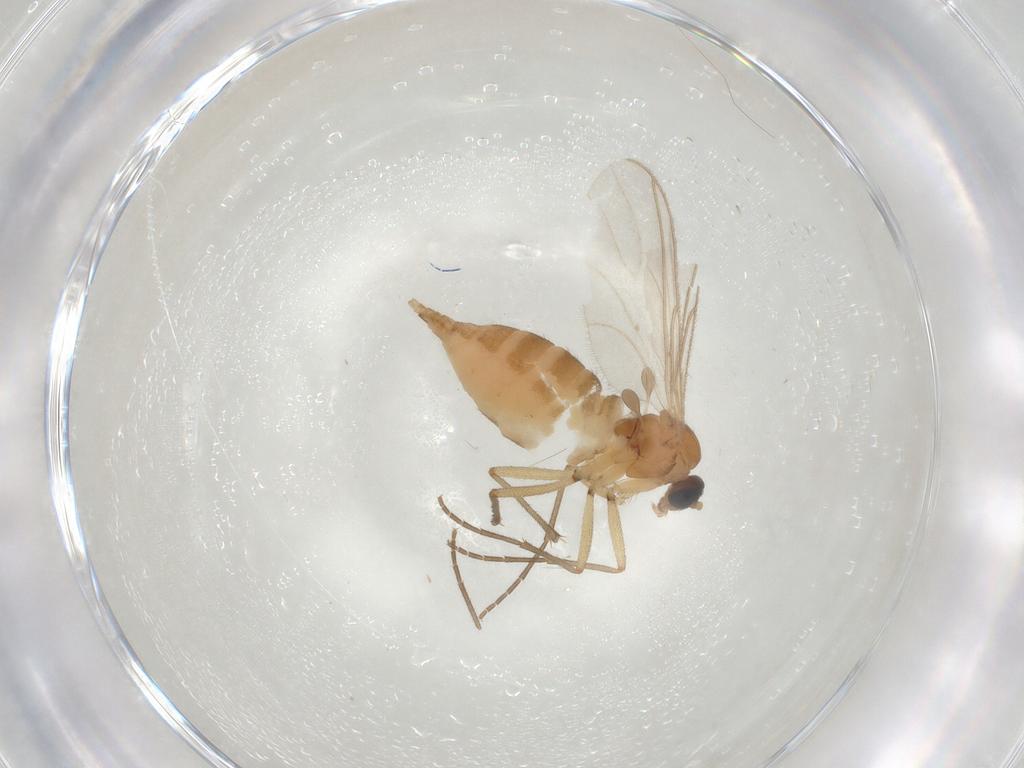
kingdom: Animalia
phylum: Arthropoda
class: Insecta
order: Diptera
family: Sciaridae
